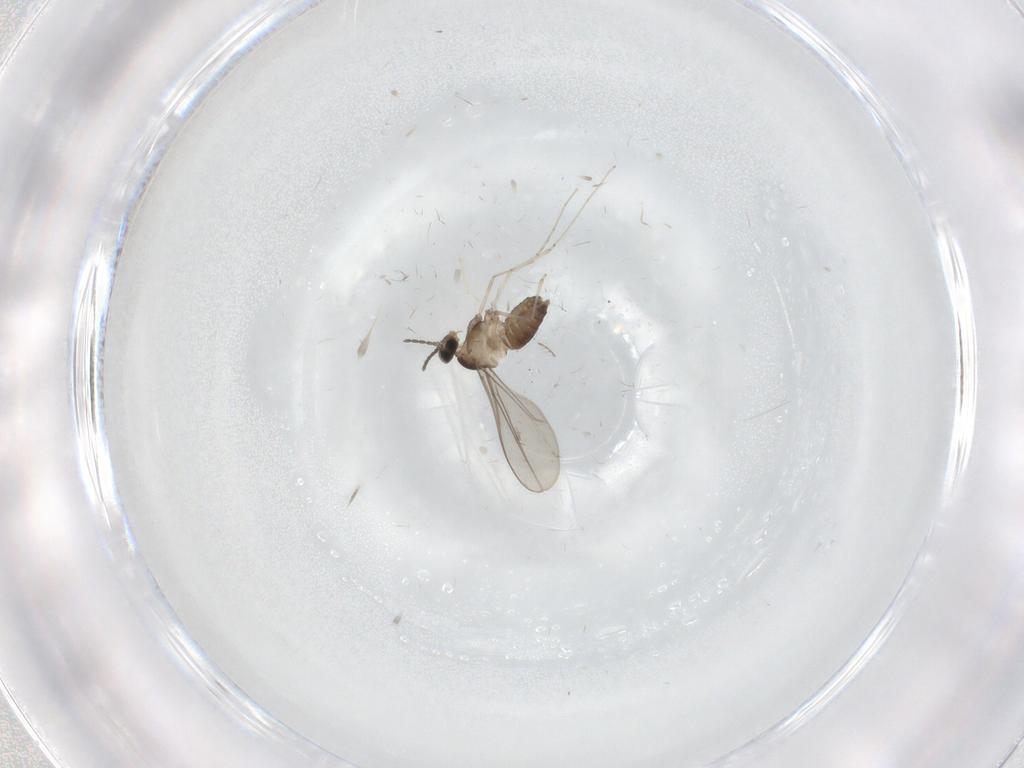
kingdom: Animalia
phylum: Arthropoda
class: Insecta
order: Diptera
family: Cecidomyiidae
